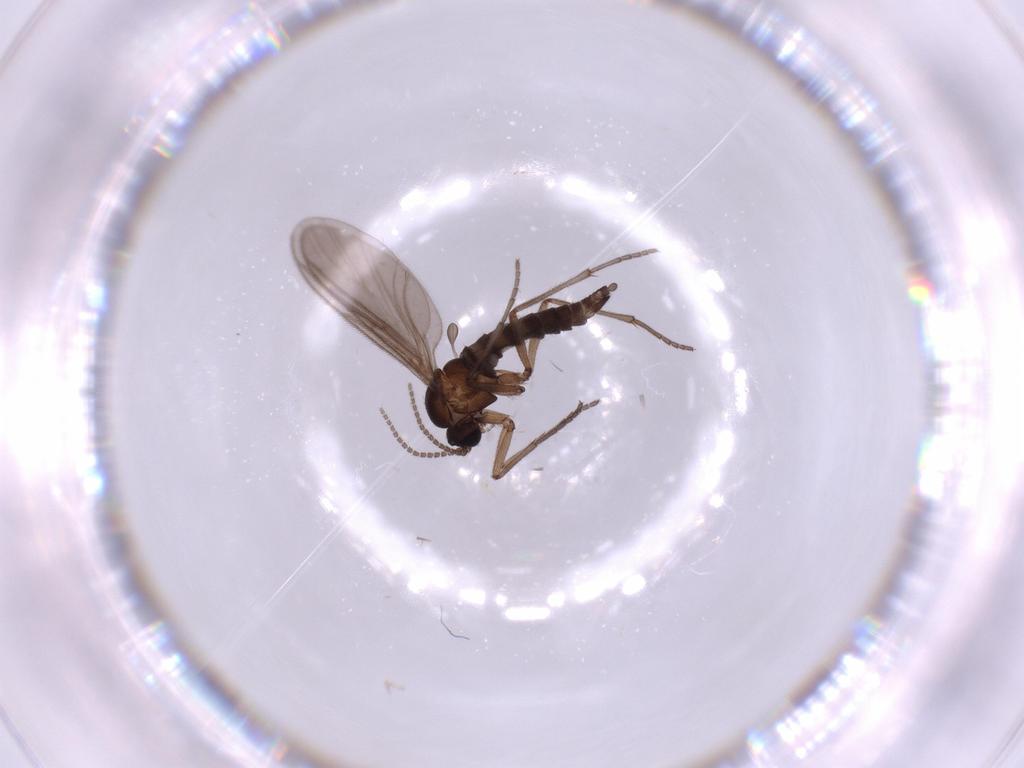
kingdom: Animalia
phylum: Arthropoda
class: Insecta
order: Diptera
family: Sciaridae
